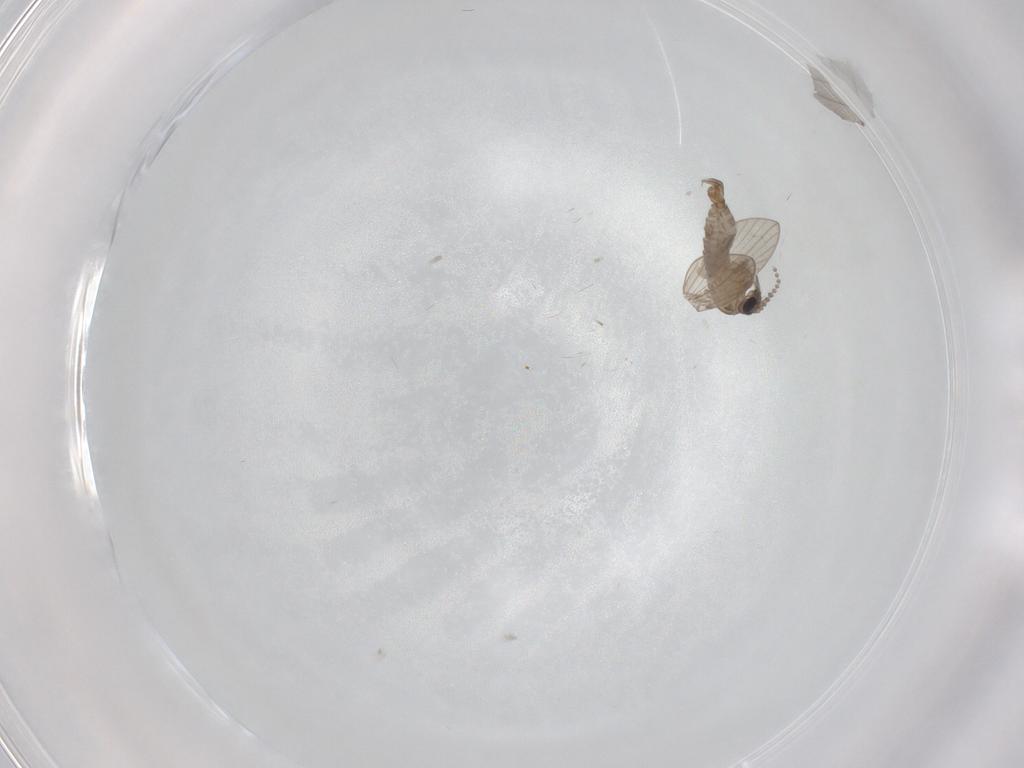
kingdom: Animalia
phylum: Arthropoda
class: Insecta
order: Diptera
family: Psychodidae
